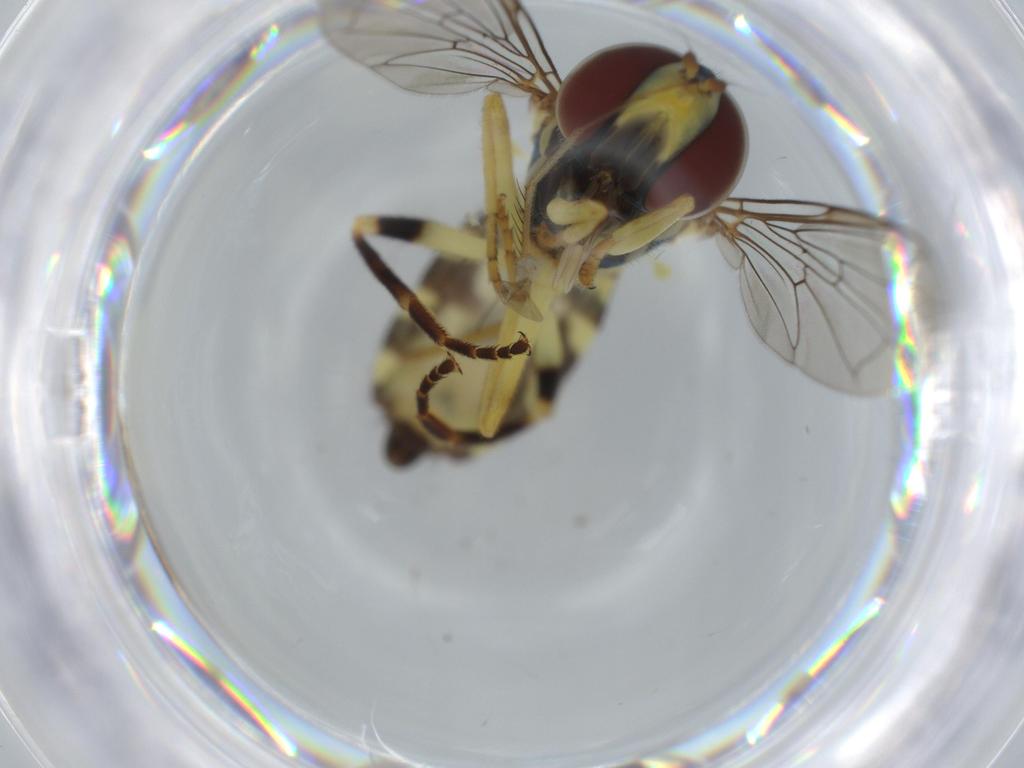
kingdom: Animalia
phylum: Arthropoda
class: Insecta
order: Diptera
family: Syrphidae
